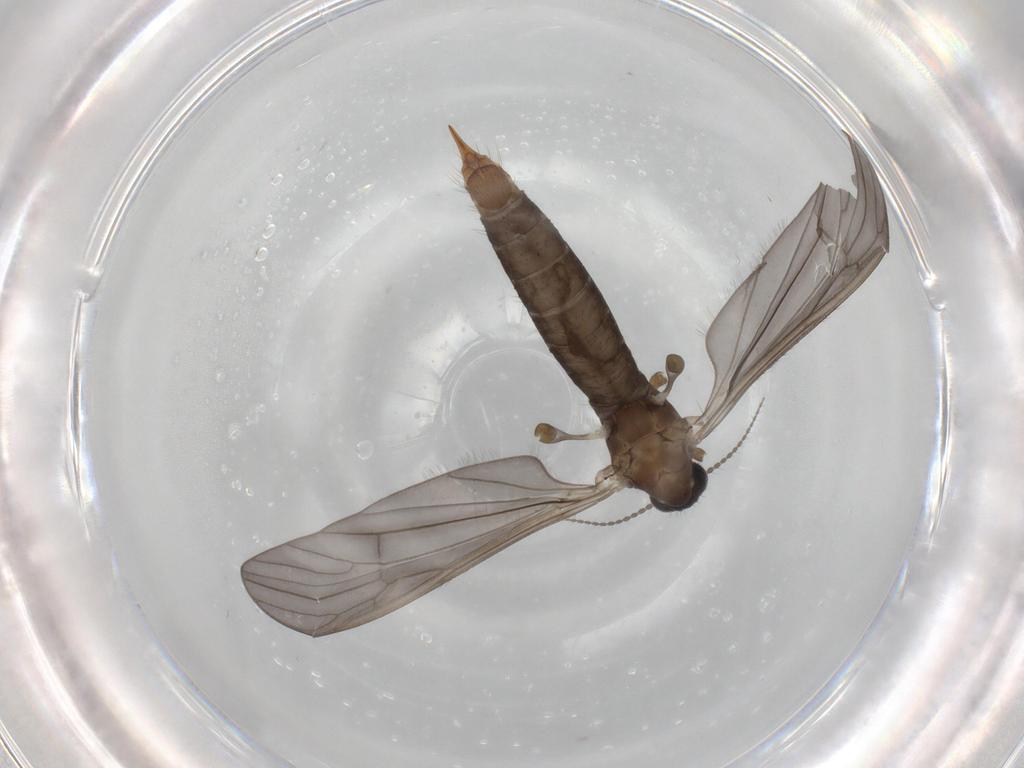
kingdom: Animalia
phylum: Arthropoda
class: Insecta
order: Diptera
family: Limoniidae
